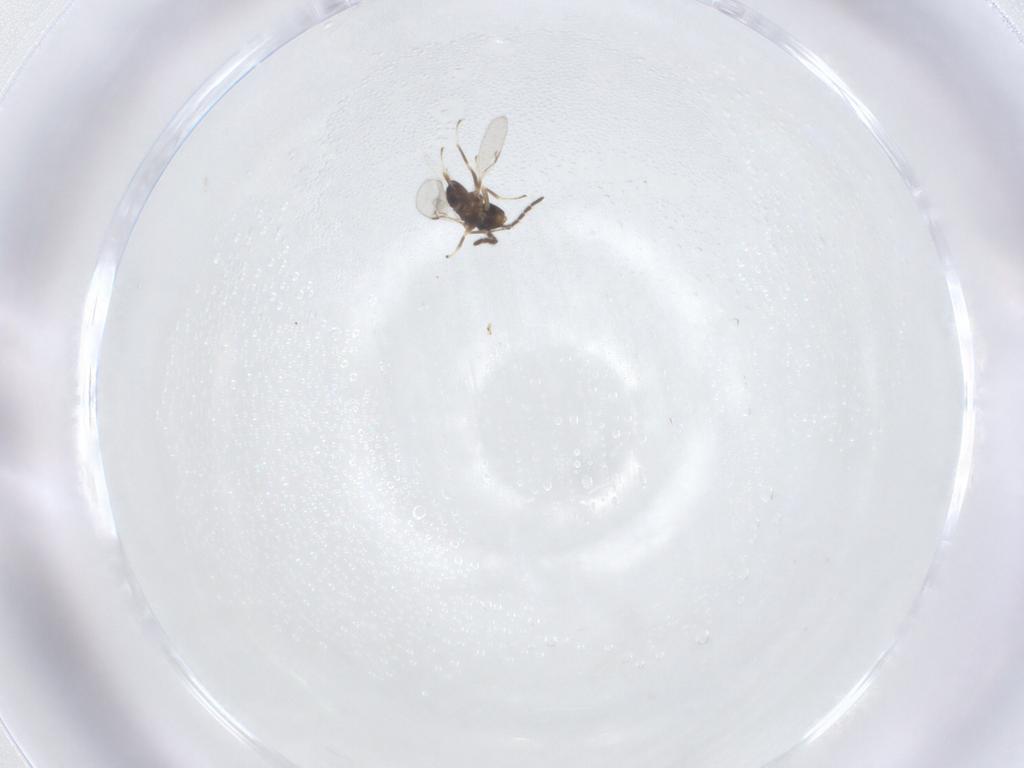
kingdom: Animalia
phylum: Arthropoda
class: Insecta
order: Hymenoptera
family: Encyrtidae
